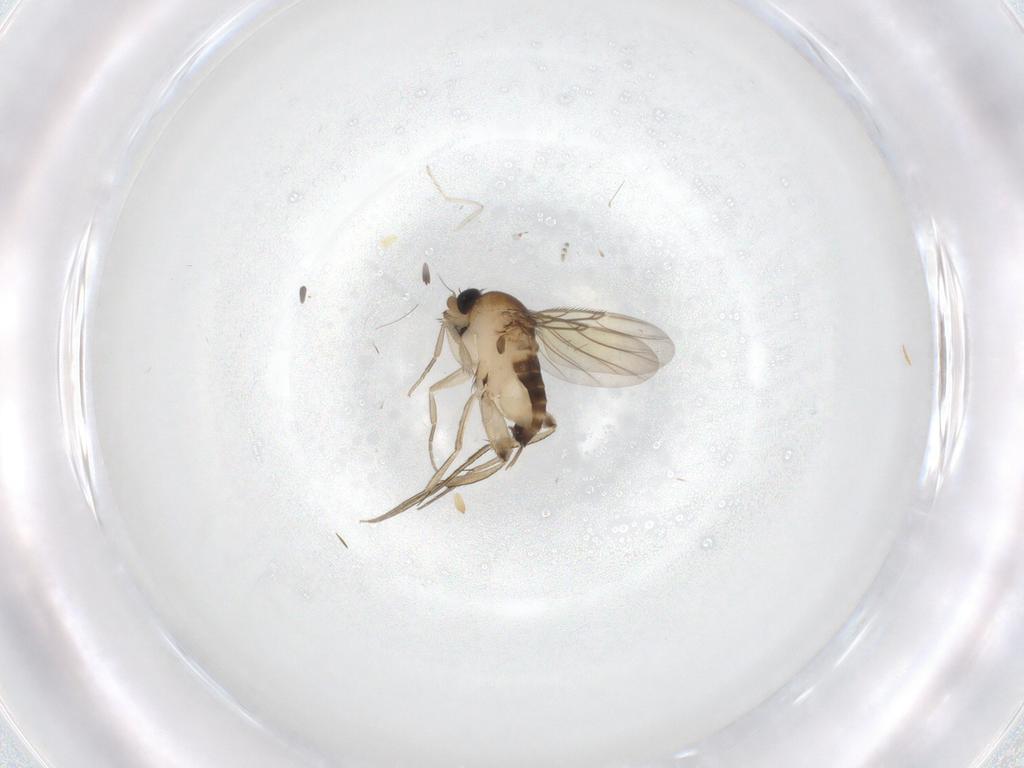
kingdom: Animalia
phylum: Arthropoda
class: Insecta
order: Diptera
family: Phoridae
